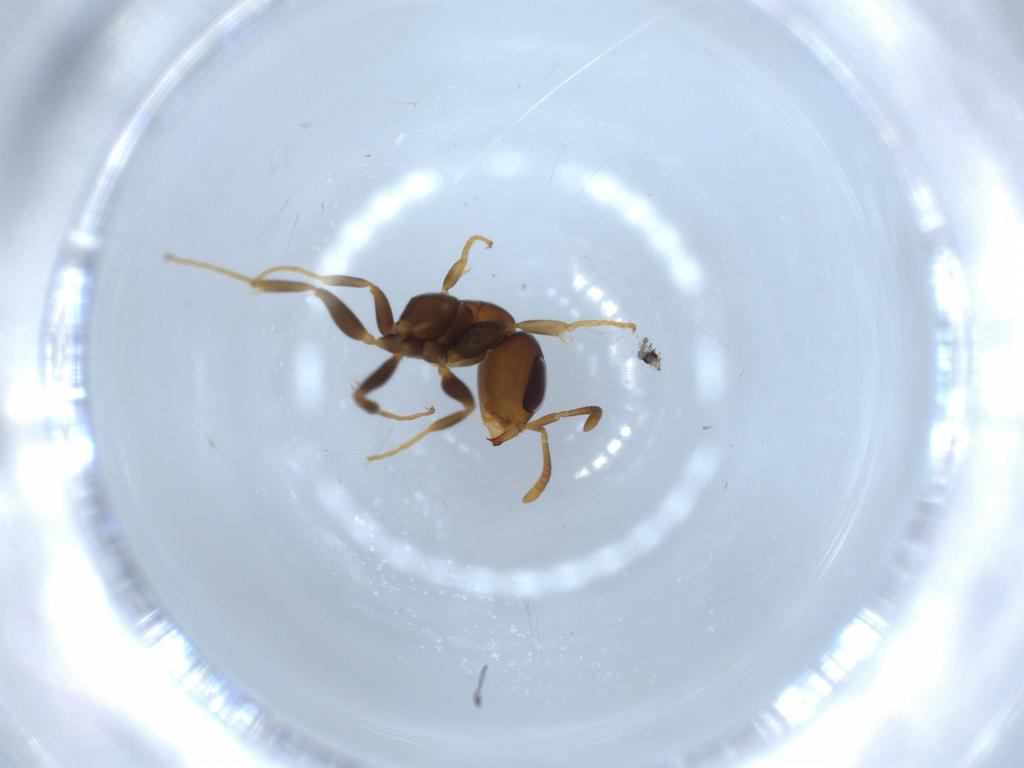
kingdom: Animalia
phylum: Arthropoda
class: Insecta
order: Hymenoptera
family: Formicidae
